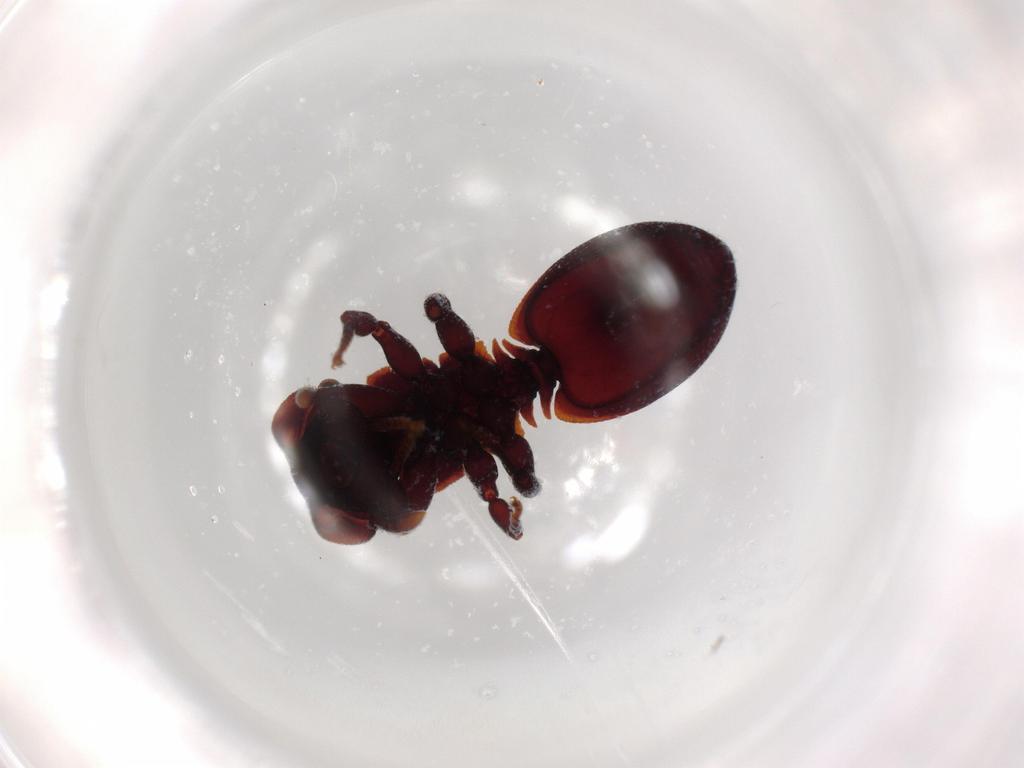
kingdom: Animalia
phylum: Arthropoda
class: Insecta
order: Hymenoptera
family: Formicidae
